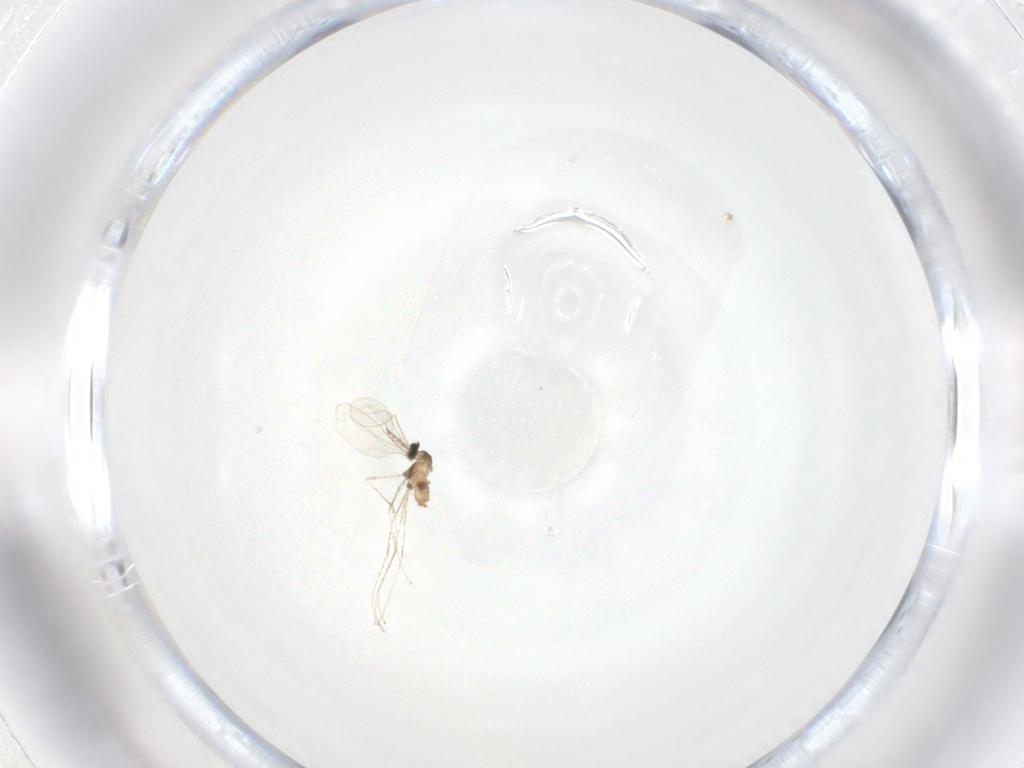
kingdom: Animalia
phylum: Arthropoda
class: Insecta
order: Diptera
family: Cecidomyiidae
